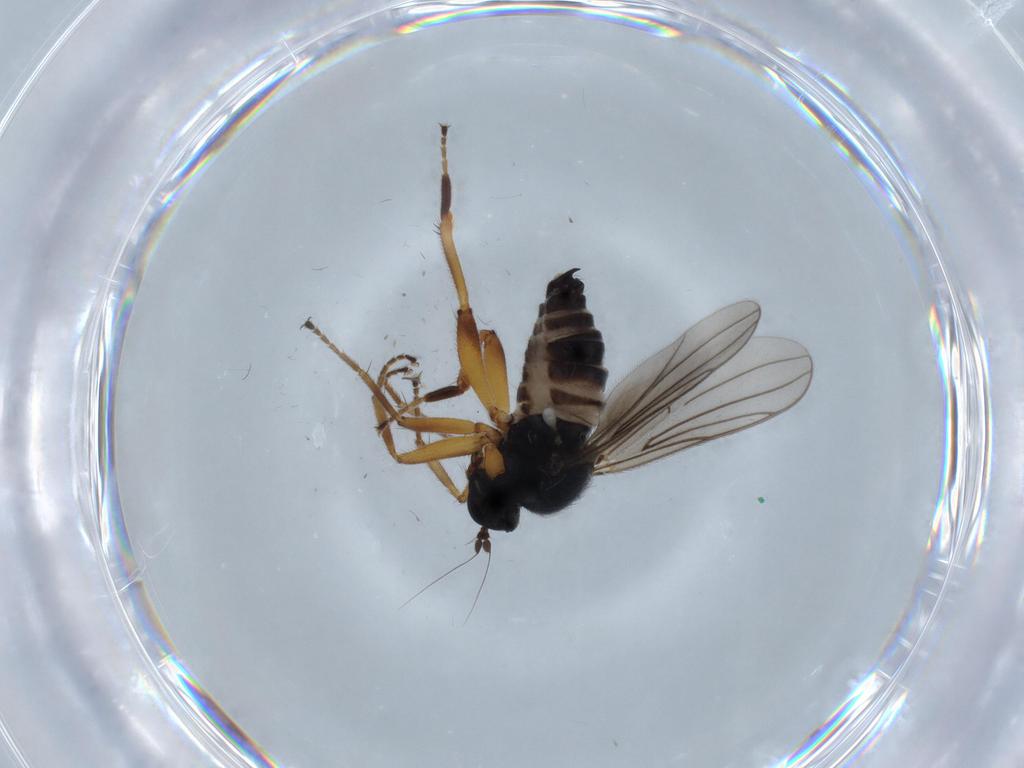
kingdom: Animalia
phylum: Arthropoda
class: Insecta
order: Diptera
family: Hybotidae
